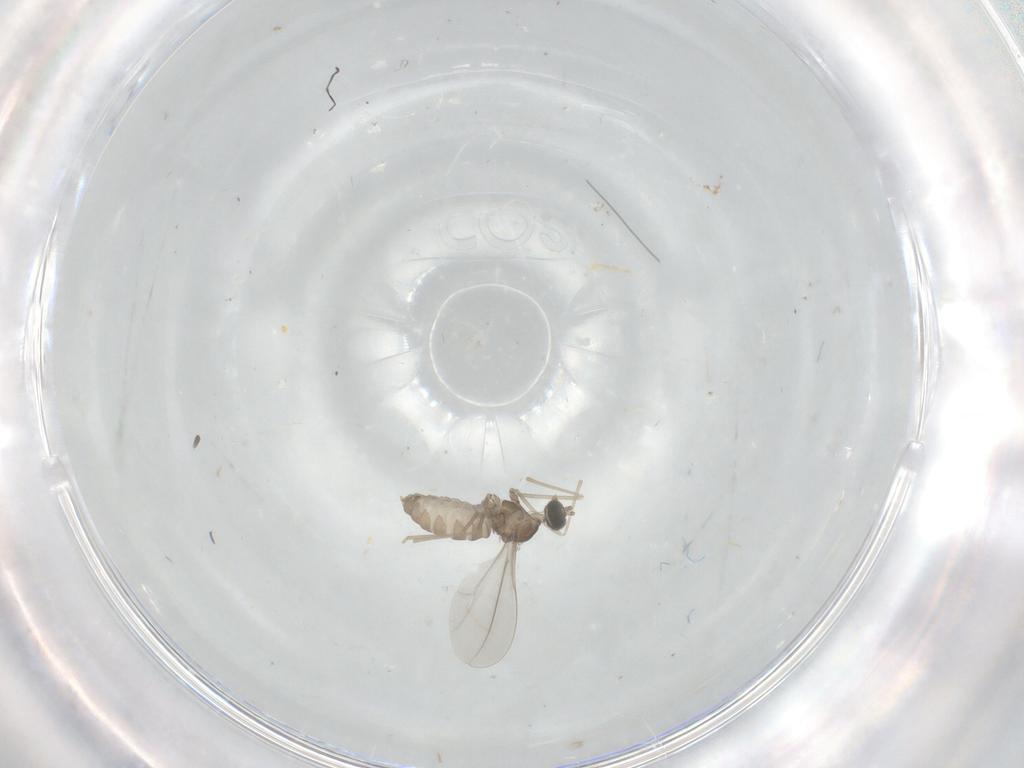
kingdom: Animalia
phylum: Arthropoda
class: Insecta
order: Diptera
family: Cecidomyiidae
